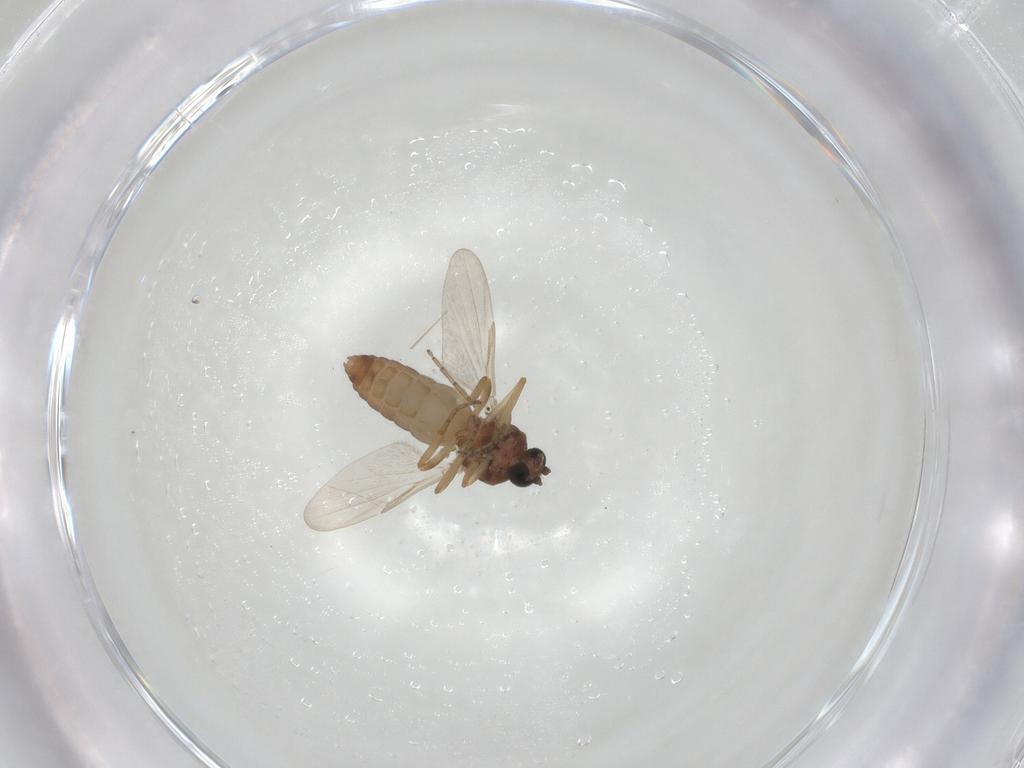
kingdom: Animalia
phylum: Arthropoda
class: Insecta
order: Diptera
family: Ceratopogonidae
